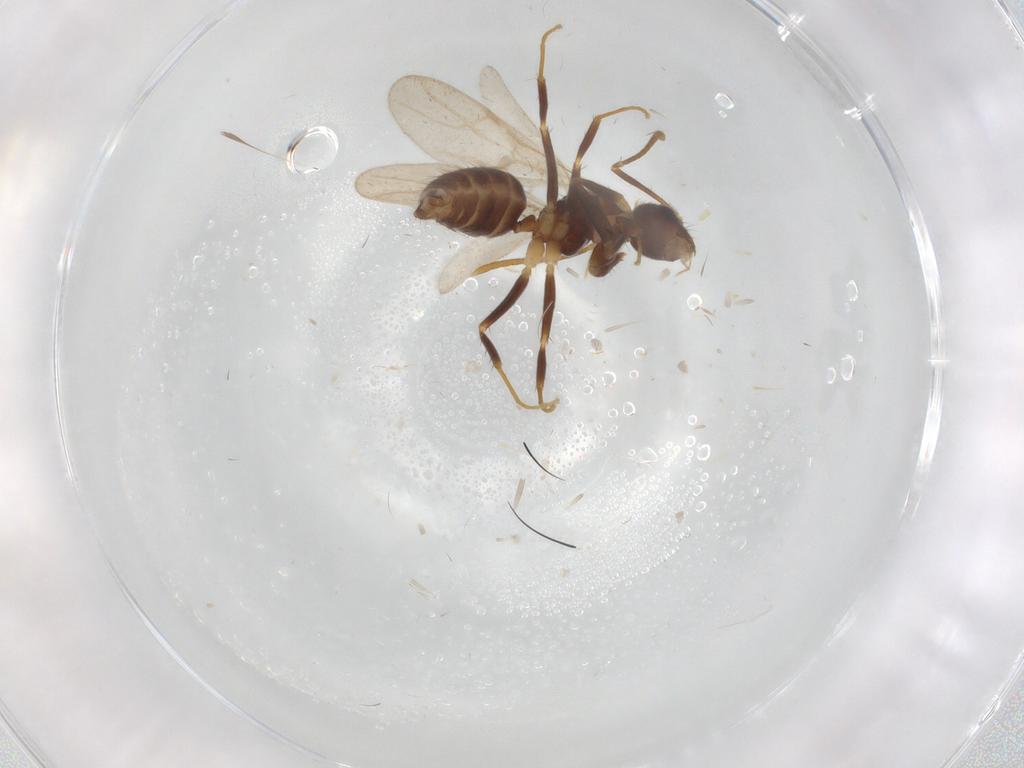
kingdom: Animalia
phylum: Arthropoda
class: Insecta
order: Hymenoptera
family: Formicidae
